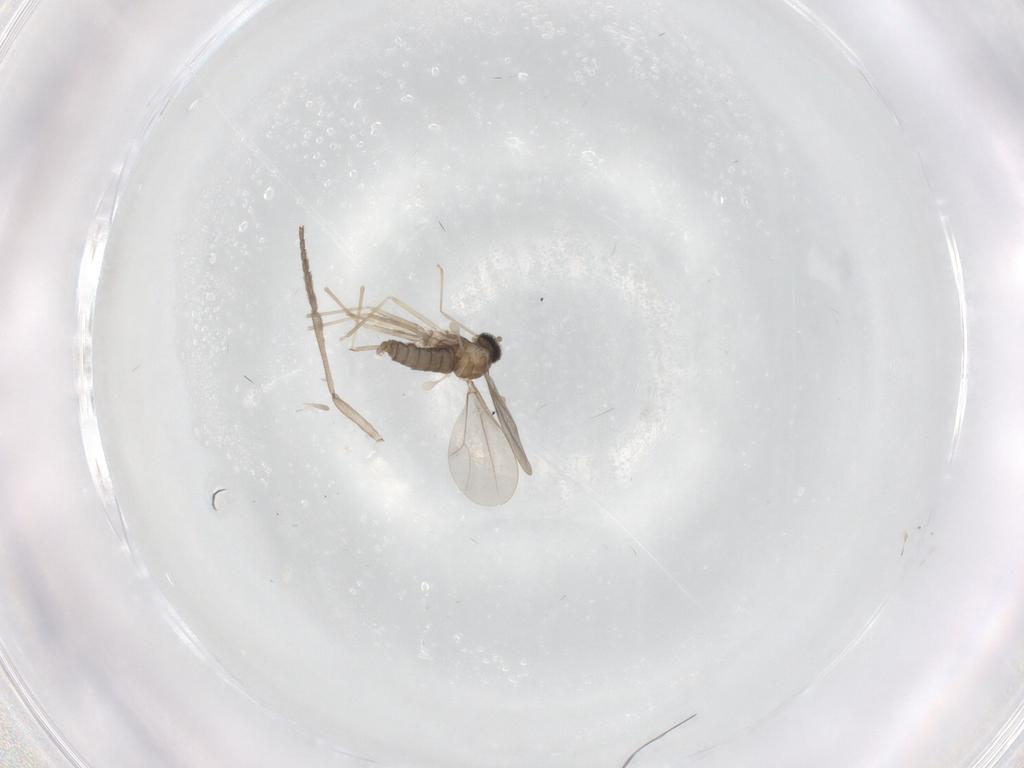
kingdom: Animalia
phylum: Arthropoda
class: Insecta
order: Diptera
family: Cecidomyiidae
